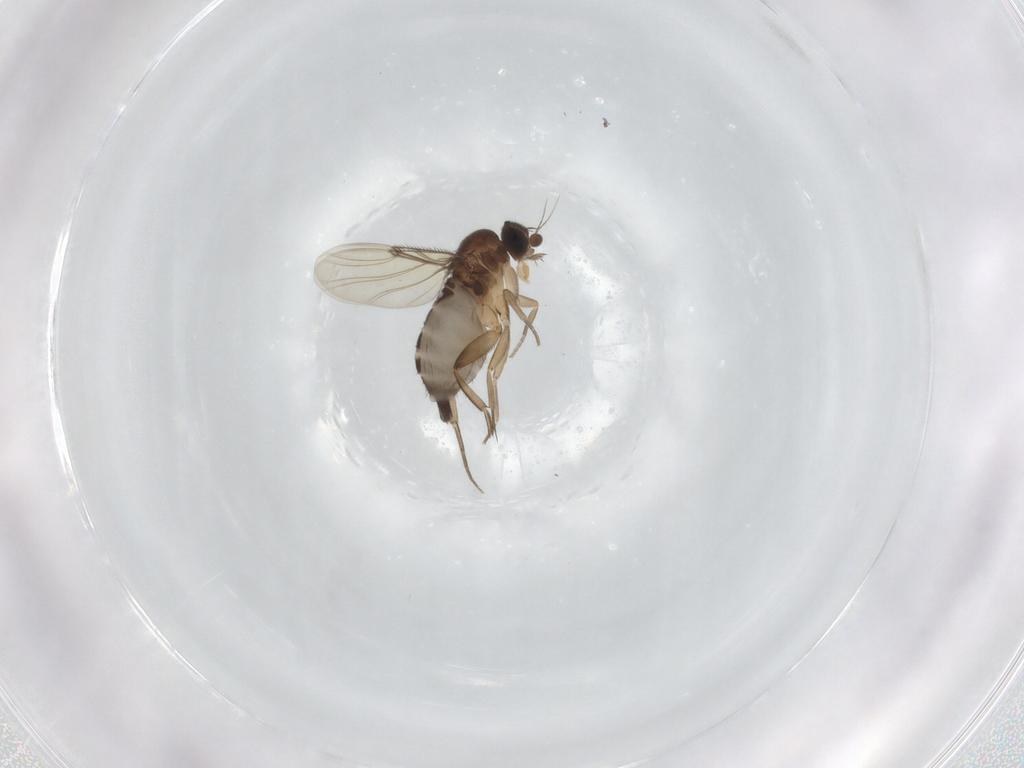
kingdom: Animalia
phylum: Arthropoda
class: Insecta
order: Diptera
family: Phoridae
